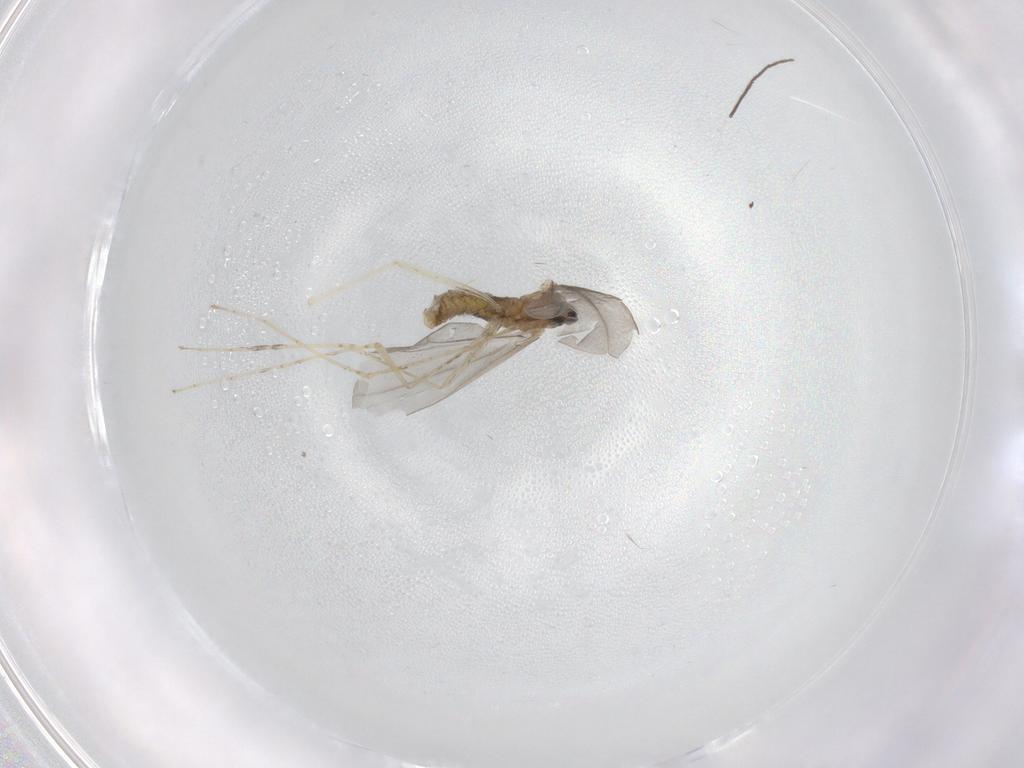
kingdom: Animalia
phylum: Arthropoda
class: Insecta
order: Diptera
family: Cecidomyiidae
